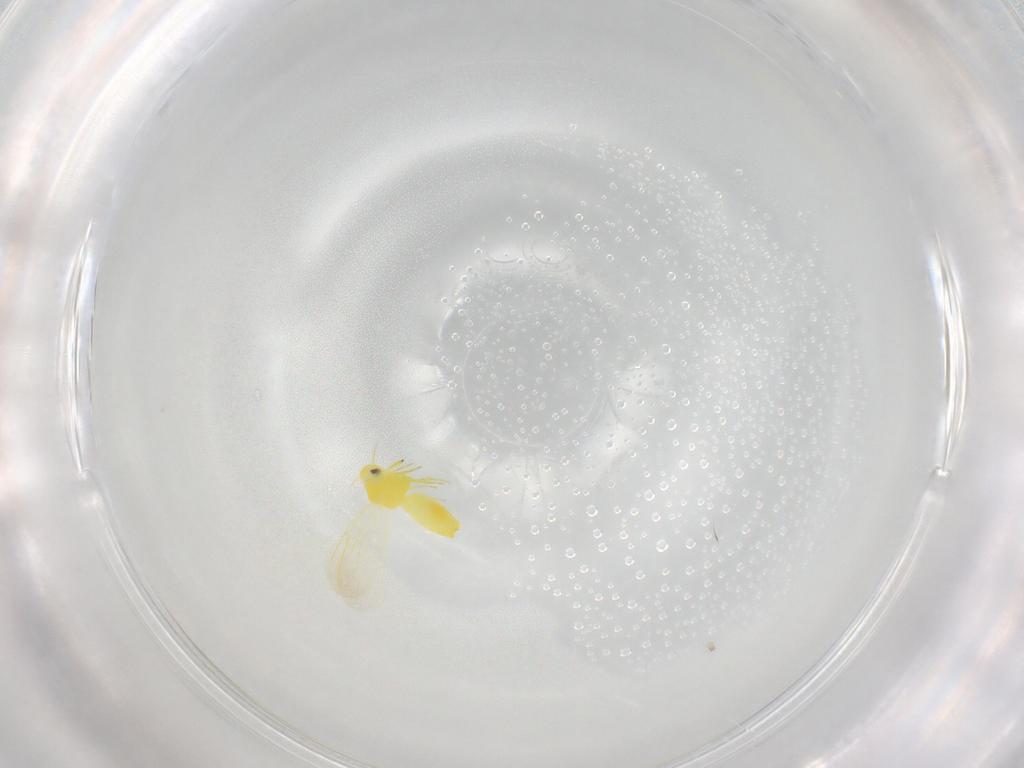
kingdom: Animalia
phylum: Arthropoda
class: Insecta
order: Hemiptera
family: Aleyrodidae
